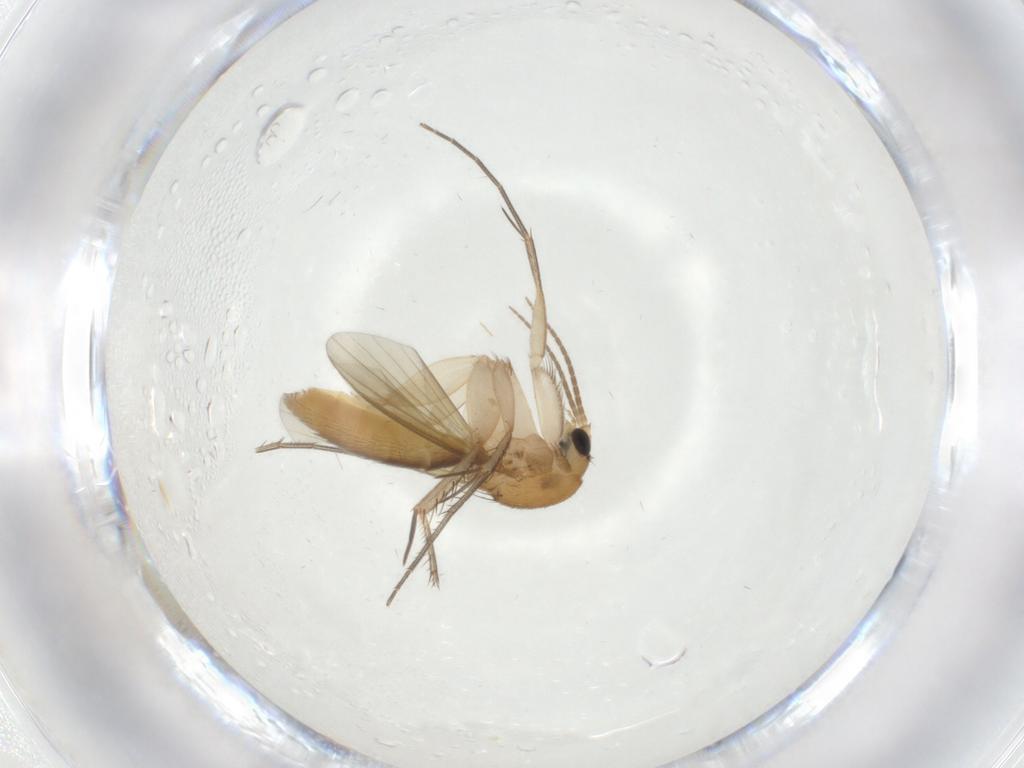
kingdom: Animalia
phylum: Arthropoda
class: Insecta
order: Diptera
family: Mycetophilidae
